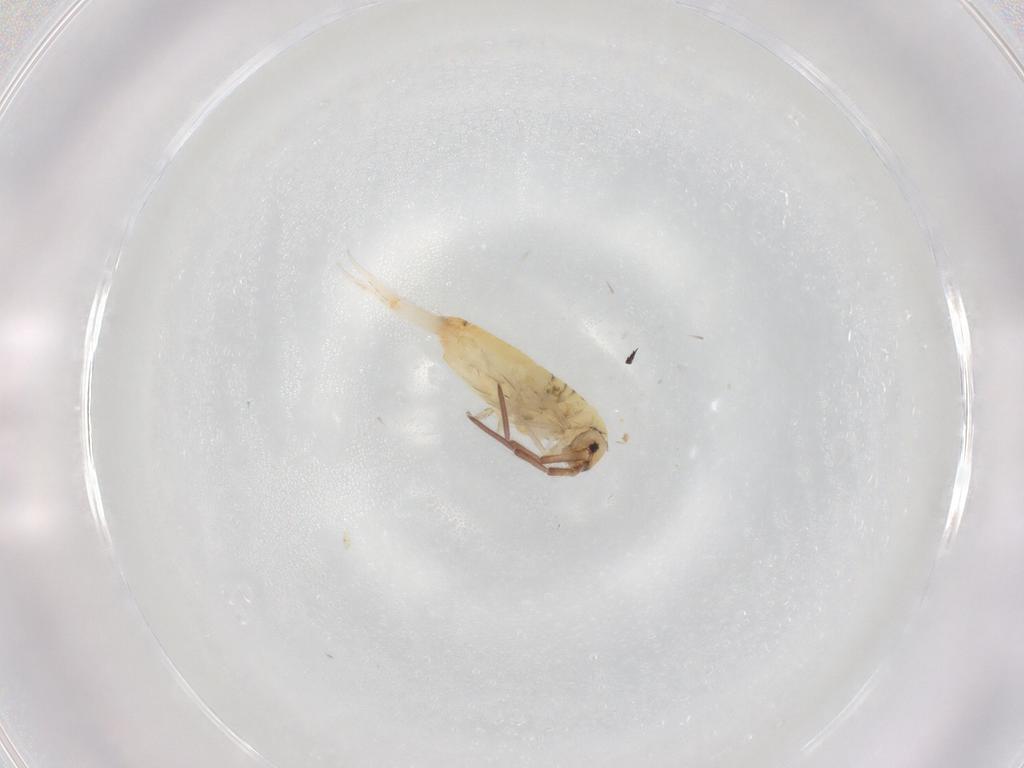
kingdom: Animalia
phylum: Arthropoda
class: Collembola
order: Entomobryomorpha
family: Entomobryidae
